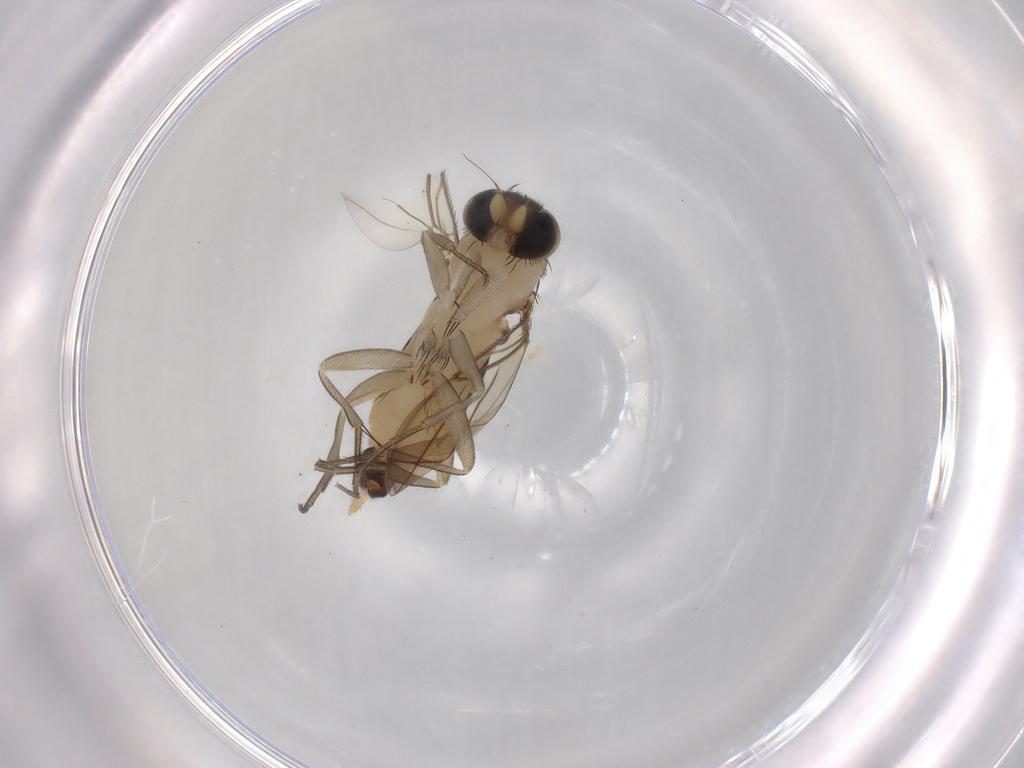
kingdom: Animalia
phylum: Arthropoda
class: Insecta
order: Diptera
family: Phoridae
